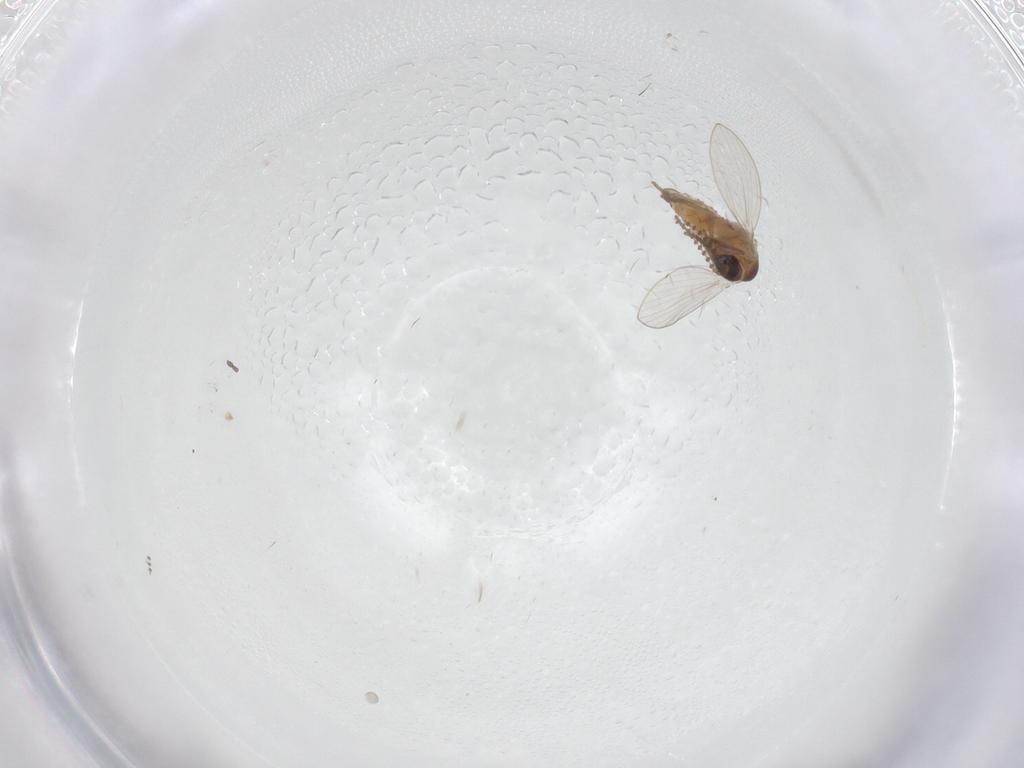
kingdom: Animalia
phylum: Arthropoda
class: Insecta
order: Diptera
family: Psychodidae
